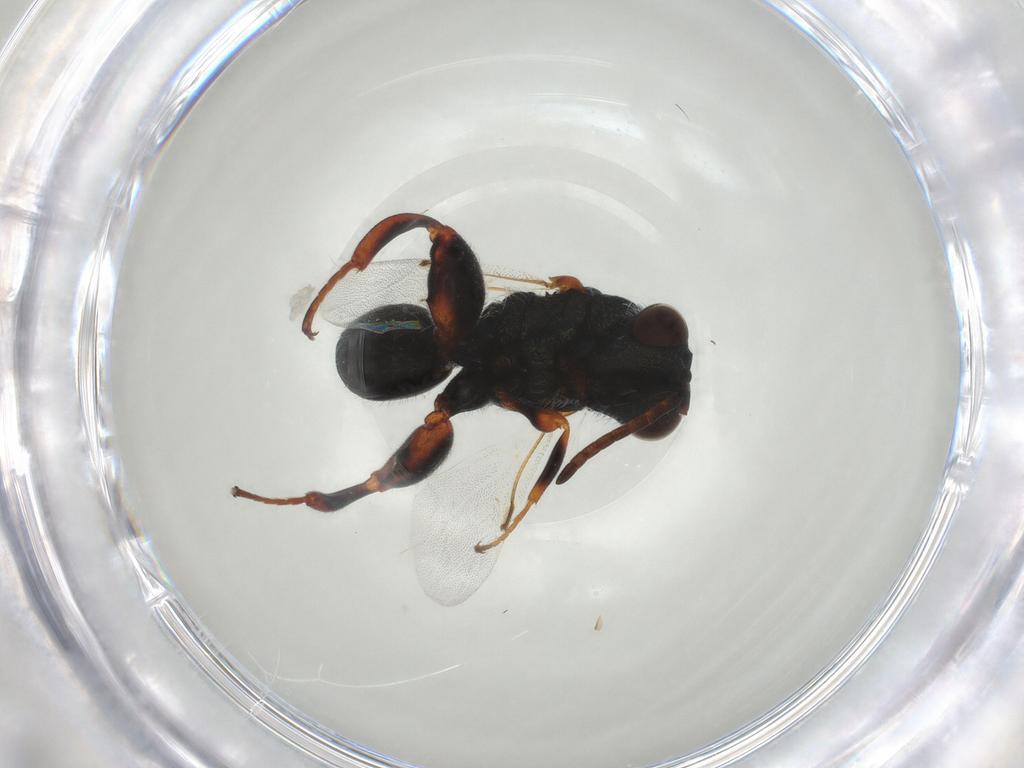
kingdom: Animalia
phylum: Arthropoda
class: Insecta
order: Hymenoptera
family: Chalcididae
